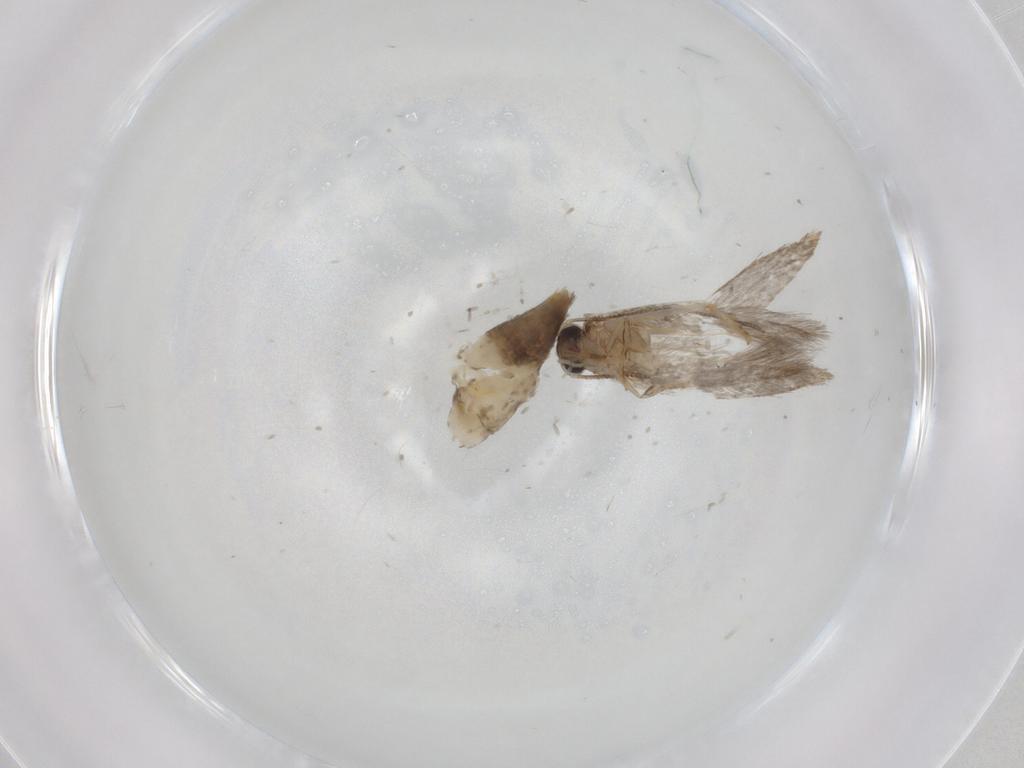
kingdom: Animalia
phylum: Arthropoda
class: Insecta
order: Lepidoptera
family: Tineidae
